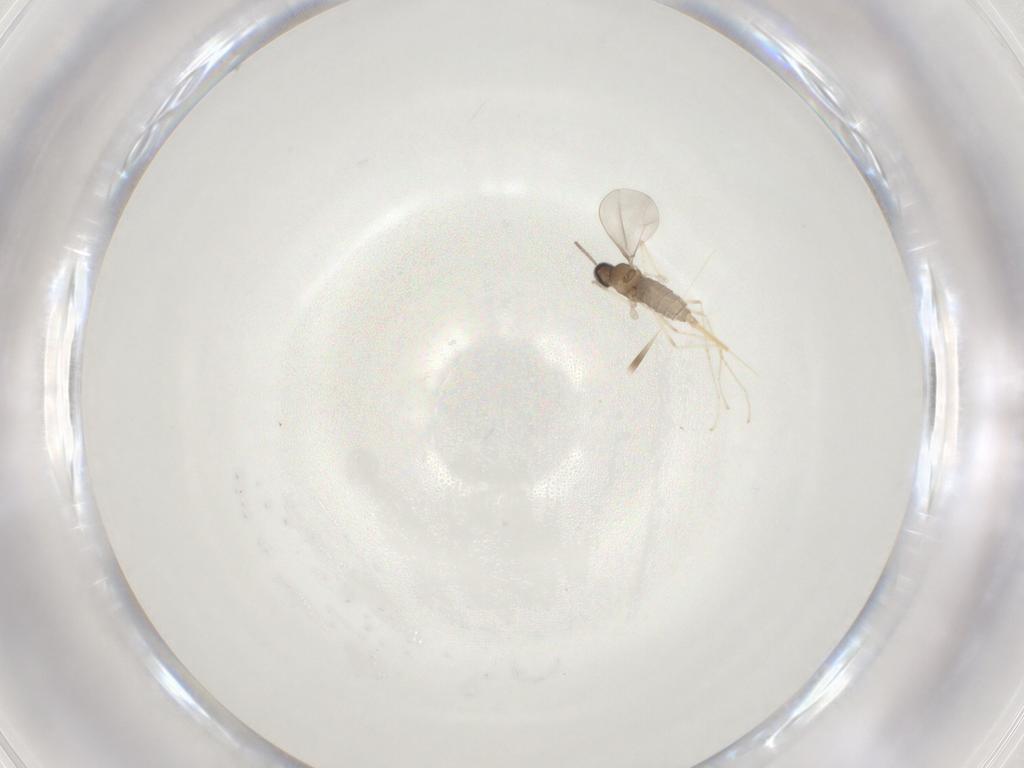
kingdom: Animalia
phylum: Arthropoda
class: Insecta
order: Diptera
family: Cecidomyiidae
